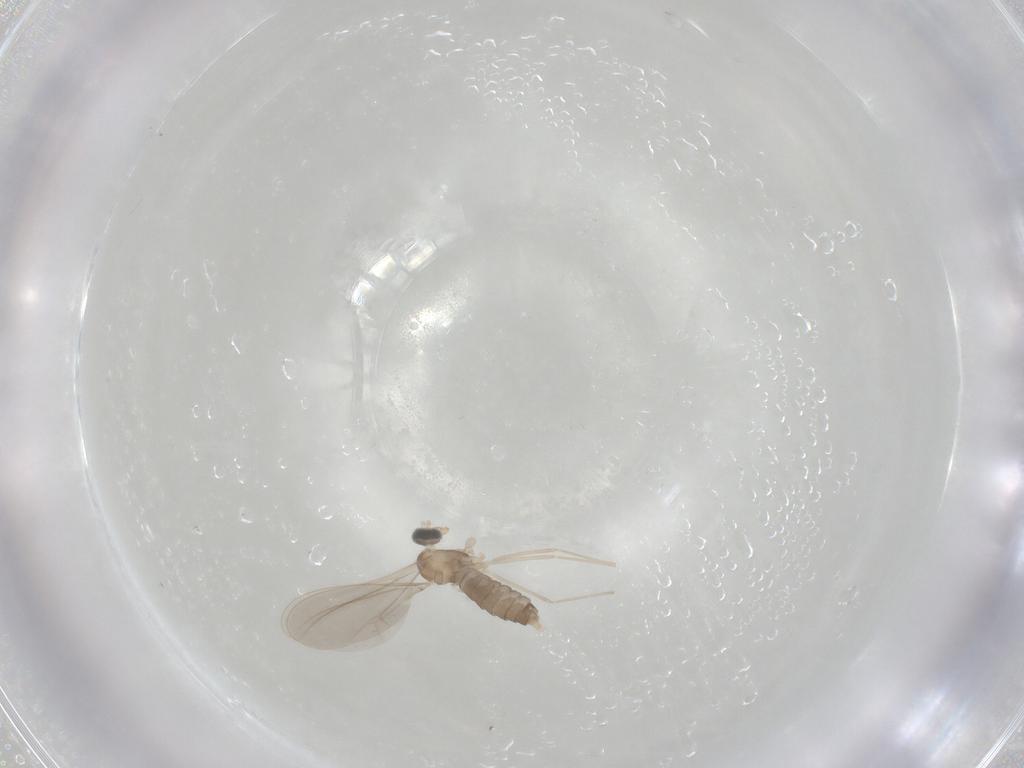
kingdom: Animalia
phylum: Arthropoda
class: Insecta
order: Diptera
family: Cecidomyiidae
